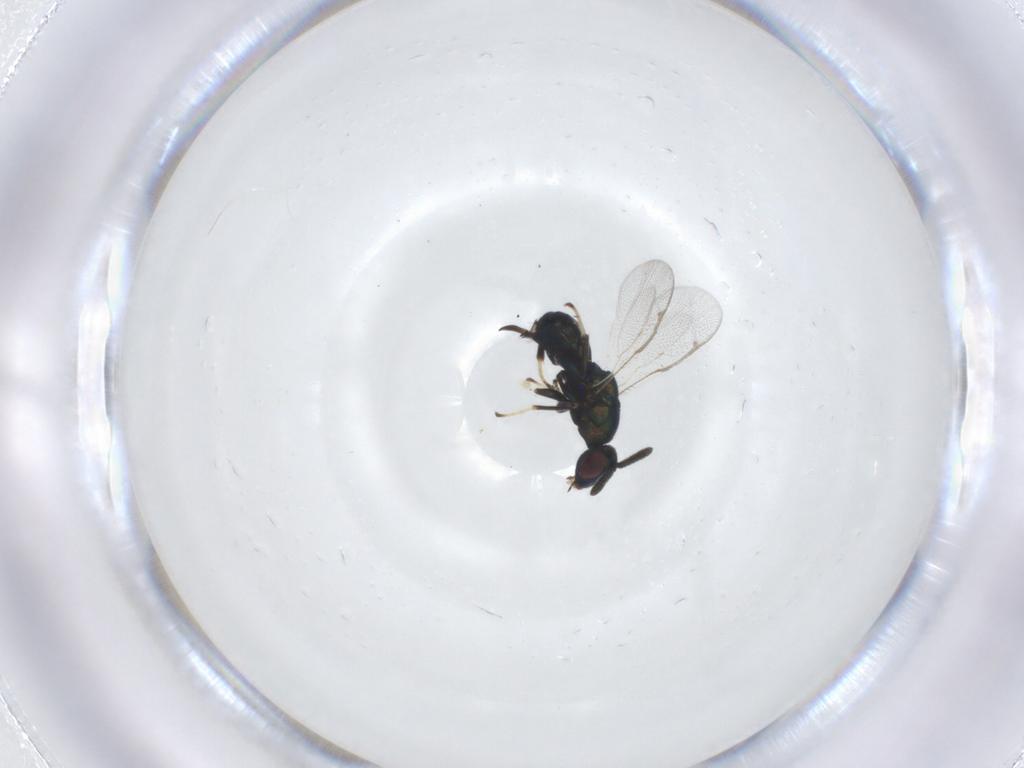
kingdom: Animalia
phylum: Arthropoda
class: Insecta
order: Hymenoptera
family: Torymidae
